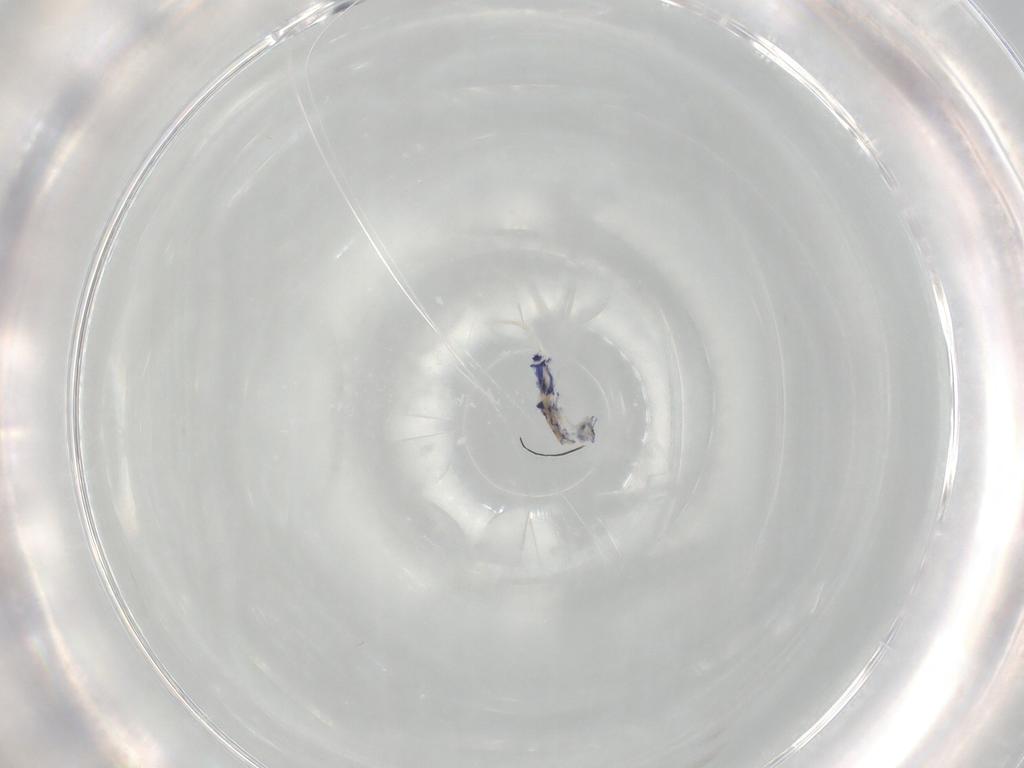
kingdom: Animalia
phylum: Arthropoda
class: Collembola
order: Entomobryomorpha
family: Entomobryidae
